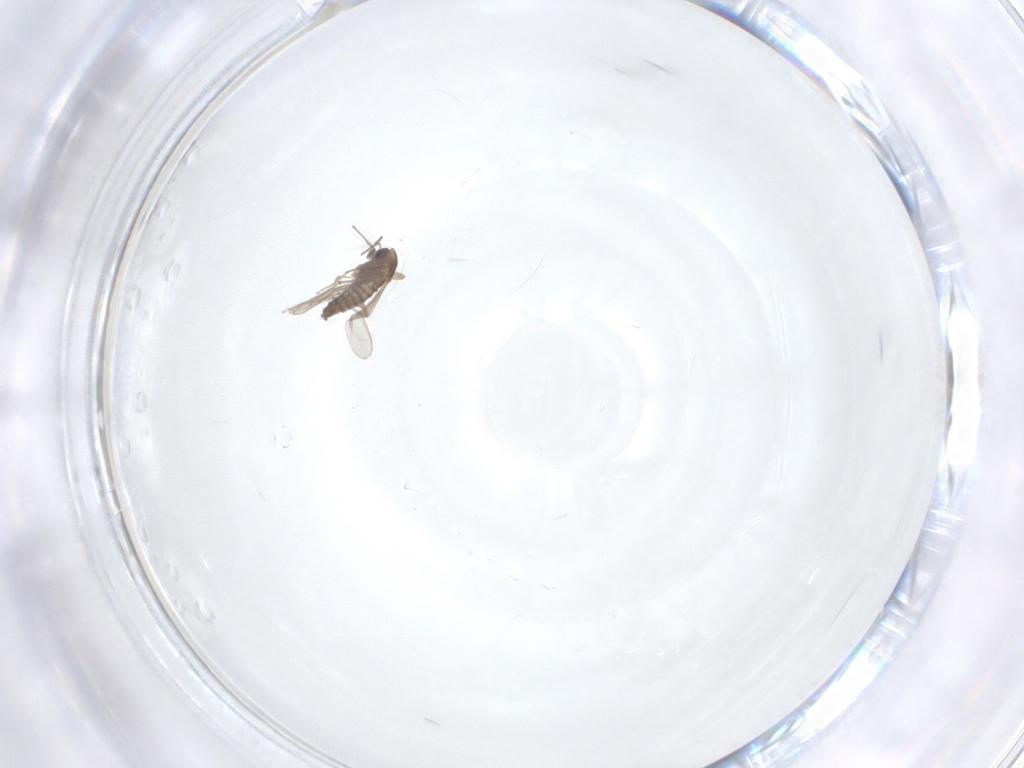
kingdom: Animalia
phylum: Arthropoda
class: Insecta
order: Diptera
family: Chironomidae
